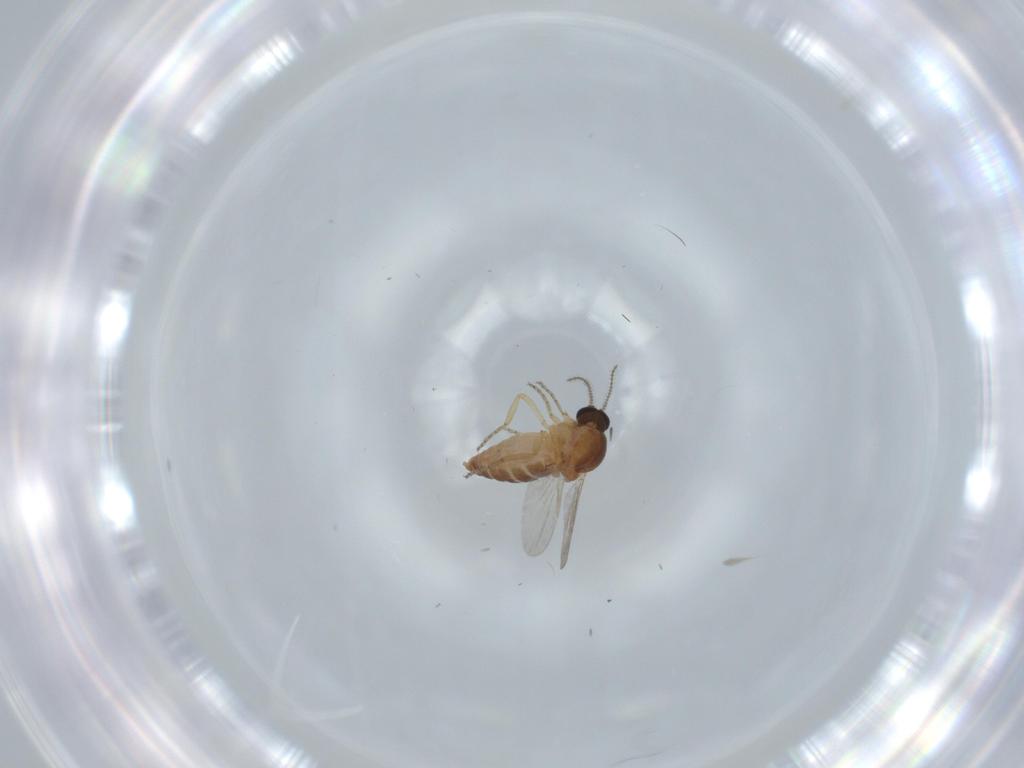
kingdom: Animalia
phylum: Arthropoda
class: Insecta
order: Diptera
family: Ceratopogonidae
